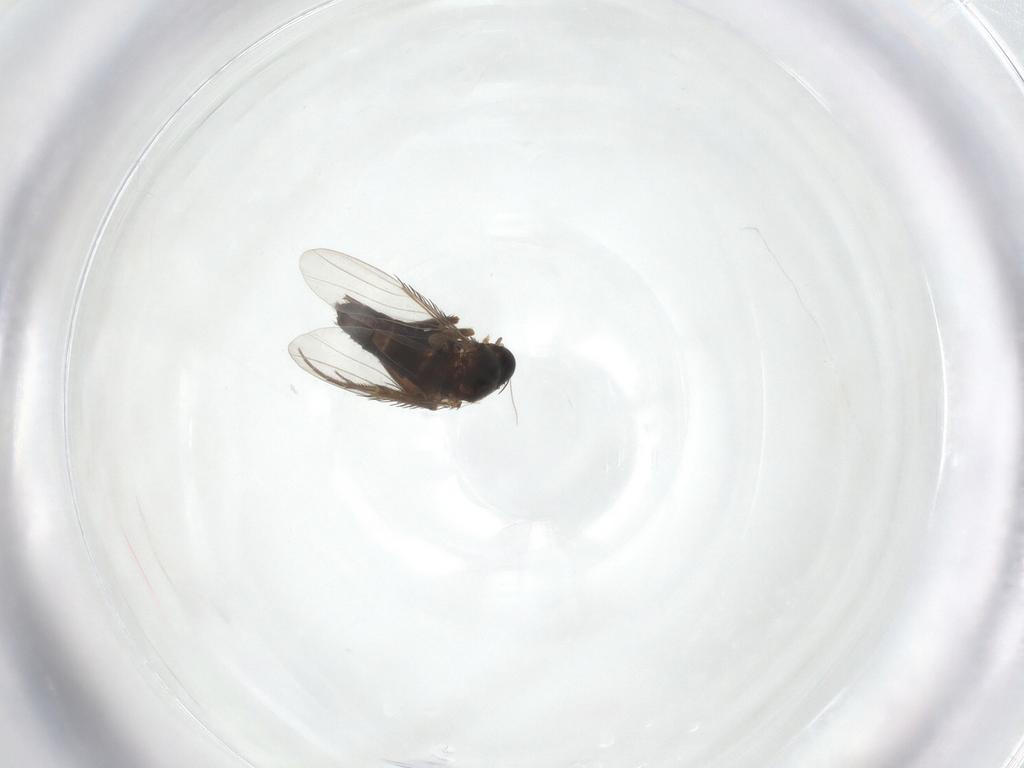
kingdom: Animalia
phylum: Arthropoda
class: Insecta
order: Diptera
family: Phoridae
